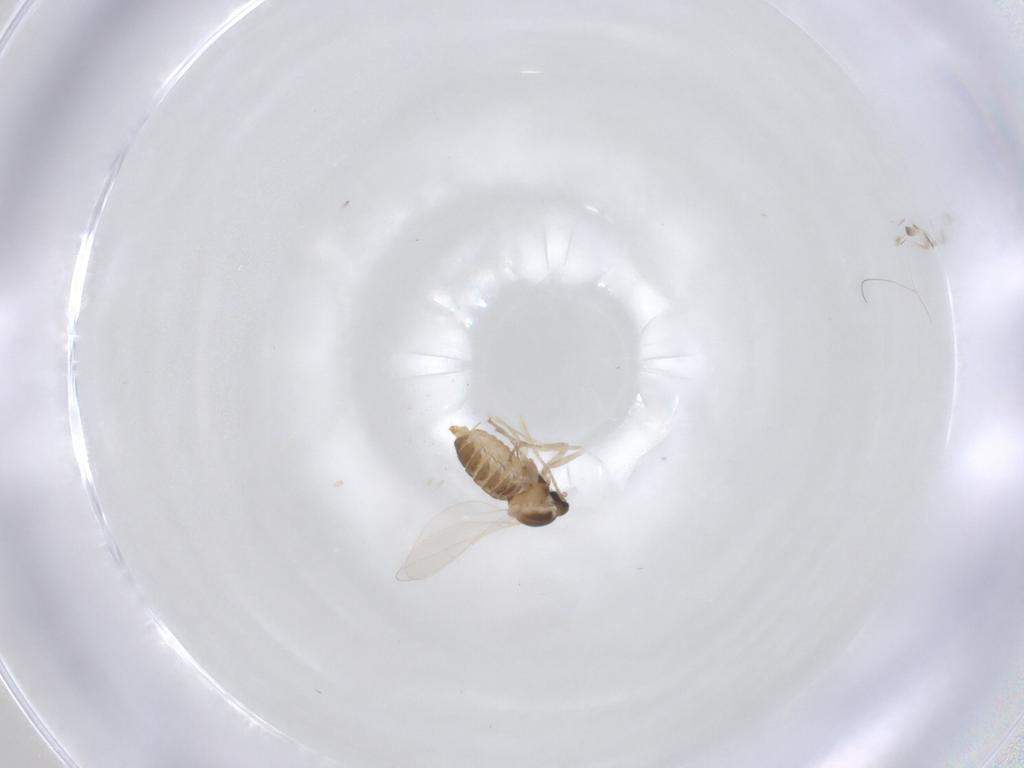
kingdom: Animalia
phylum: Arthropoda
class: Insecta
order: Diptera
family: Cecidomyiidae
